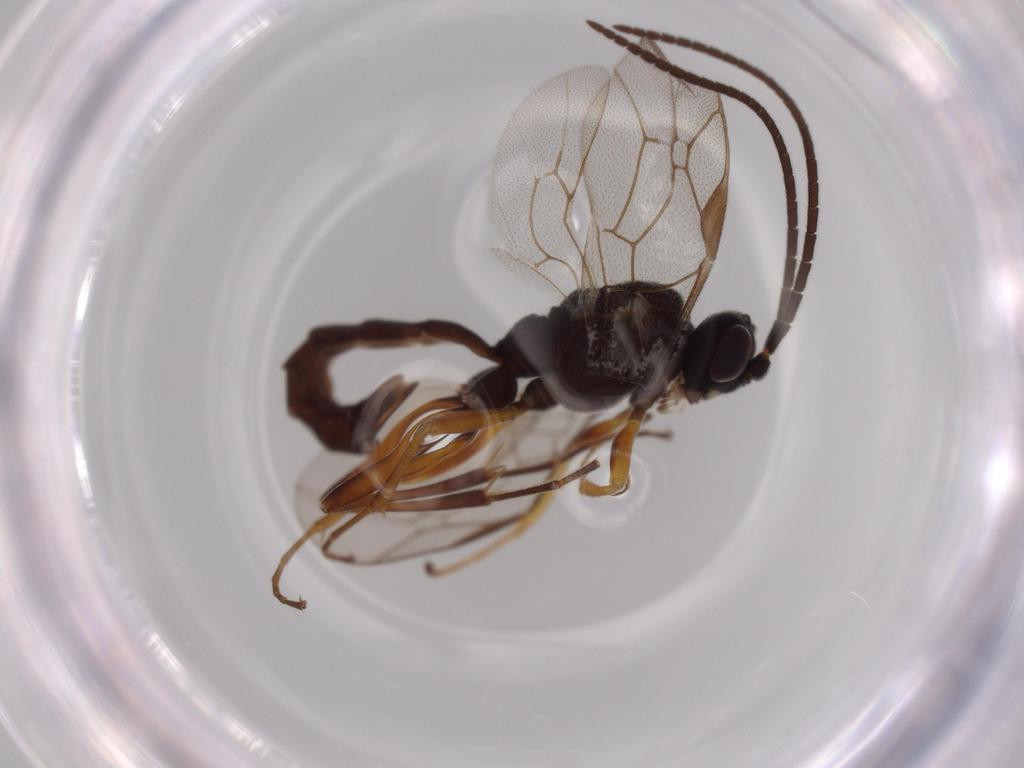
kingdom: Animalia
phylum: Arthropoda
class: Insecta
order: Hymenoptera
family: Ichneumonidae
